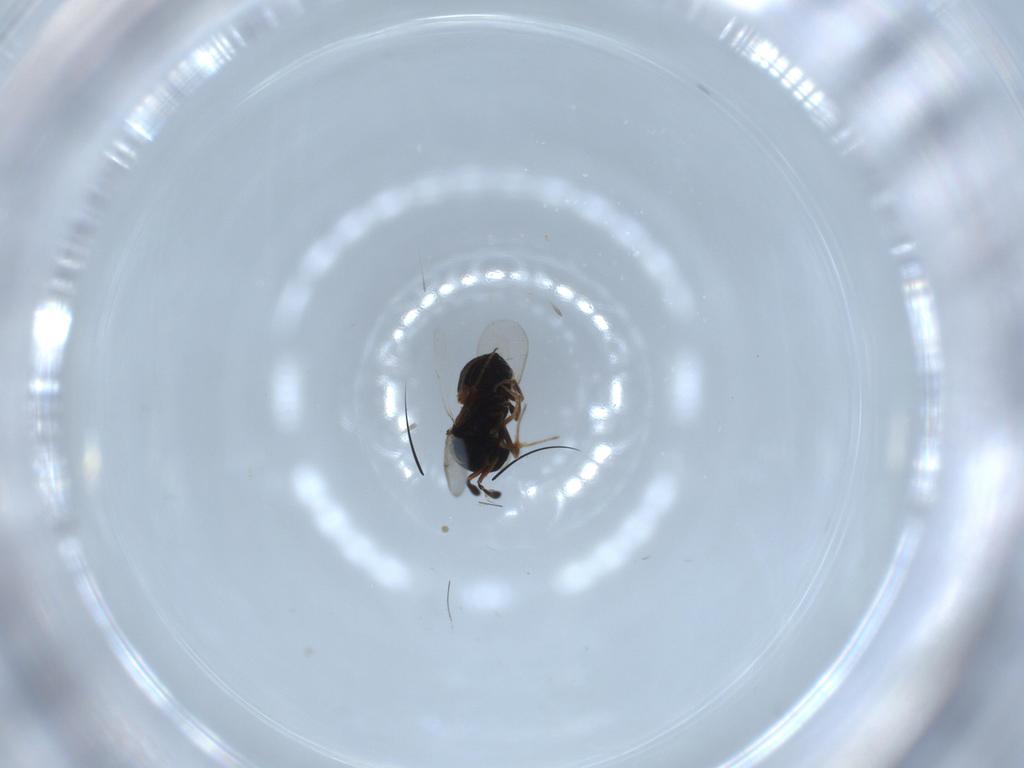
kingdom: Animalia
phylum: Arthropoda
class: Insecta
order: Hymenoptera
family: Scelionidae
